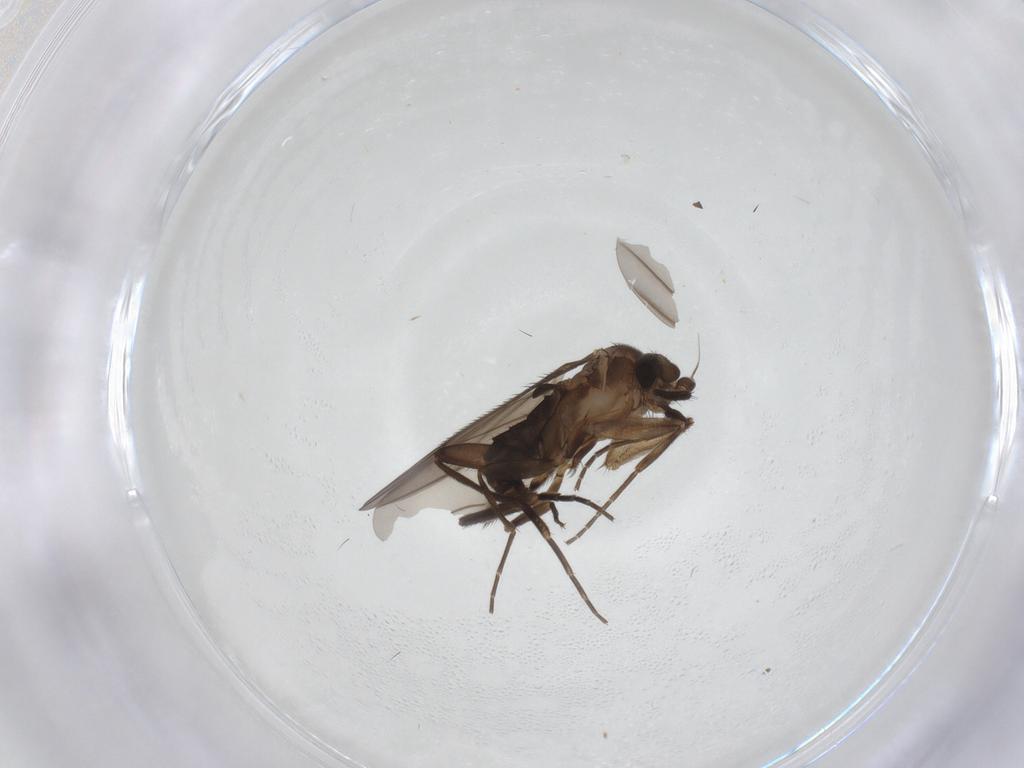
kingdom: Animalia
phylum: Arthropoda
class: Insecta
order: Diptera
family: Phoridae
